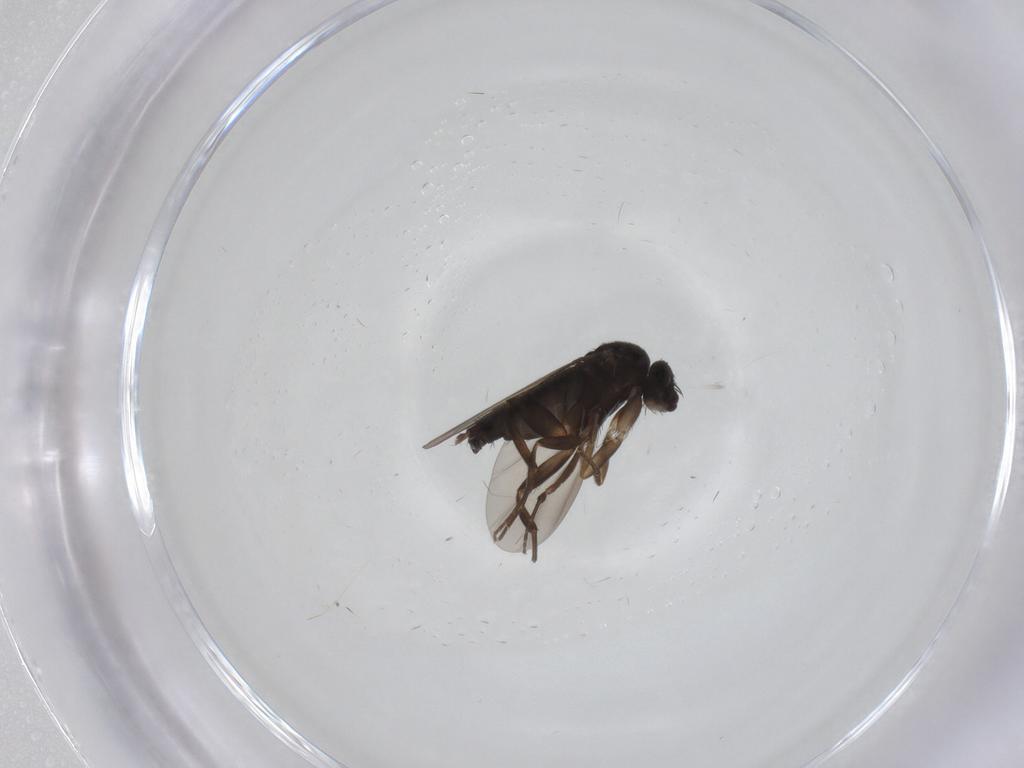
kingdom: Animalia
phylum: Arthropoda
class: Insecta
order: Diptera
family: Phoridae
